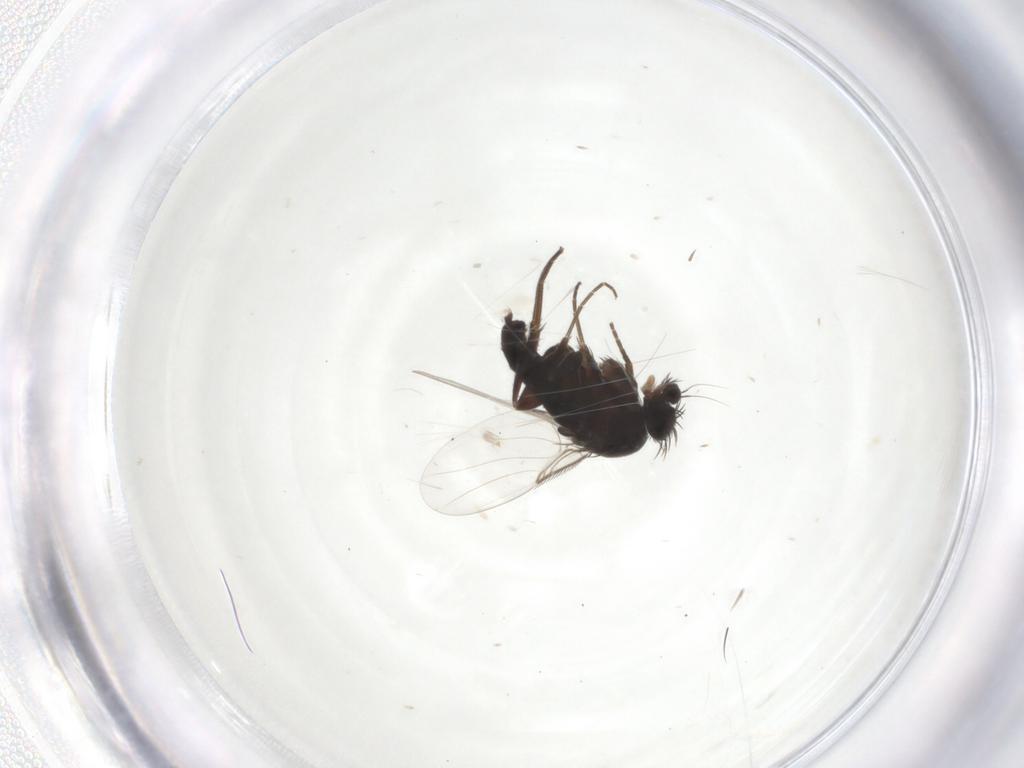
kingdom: Animalia
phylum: Arthropoda
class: Insecta
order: Diptera
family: Phoridae
